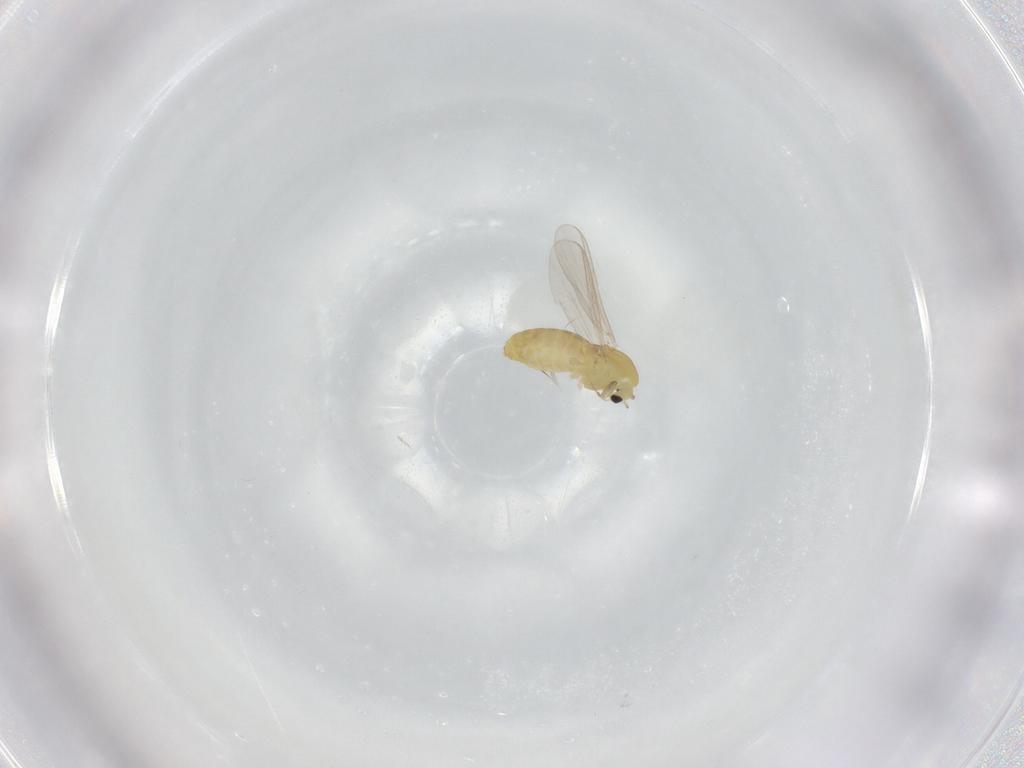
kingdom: Animalia
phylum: Arthropoda
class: Insecta
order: Diptera
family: Chironomidae
